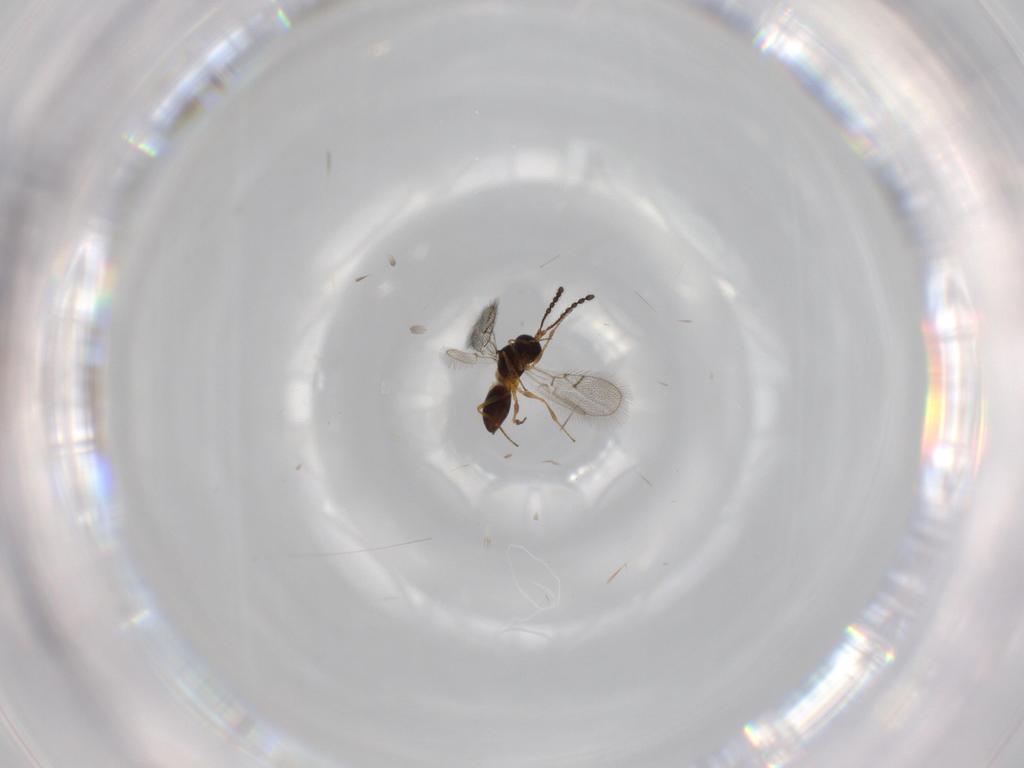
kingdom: Animalia
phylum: Arthropoda
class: Insecta
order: Hymenoptera
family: Figitidae
